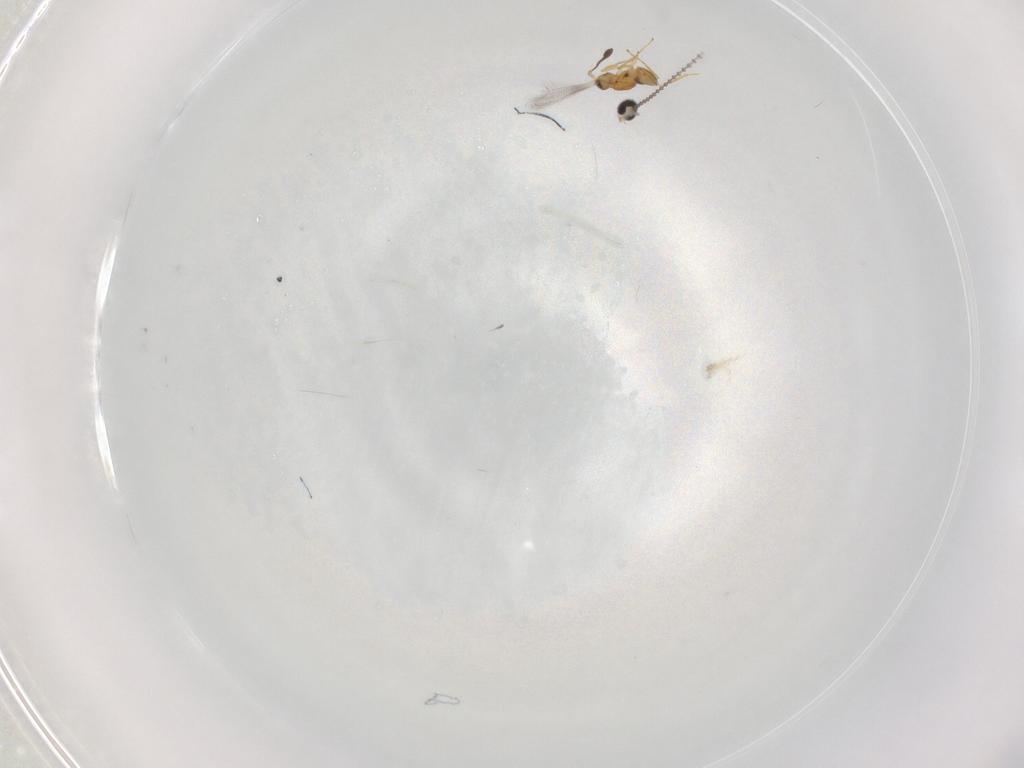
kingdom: Animalia
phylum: Arthropoda
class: Insecta
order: Hymenoptera
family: Mymaridae
